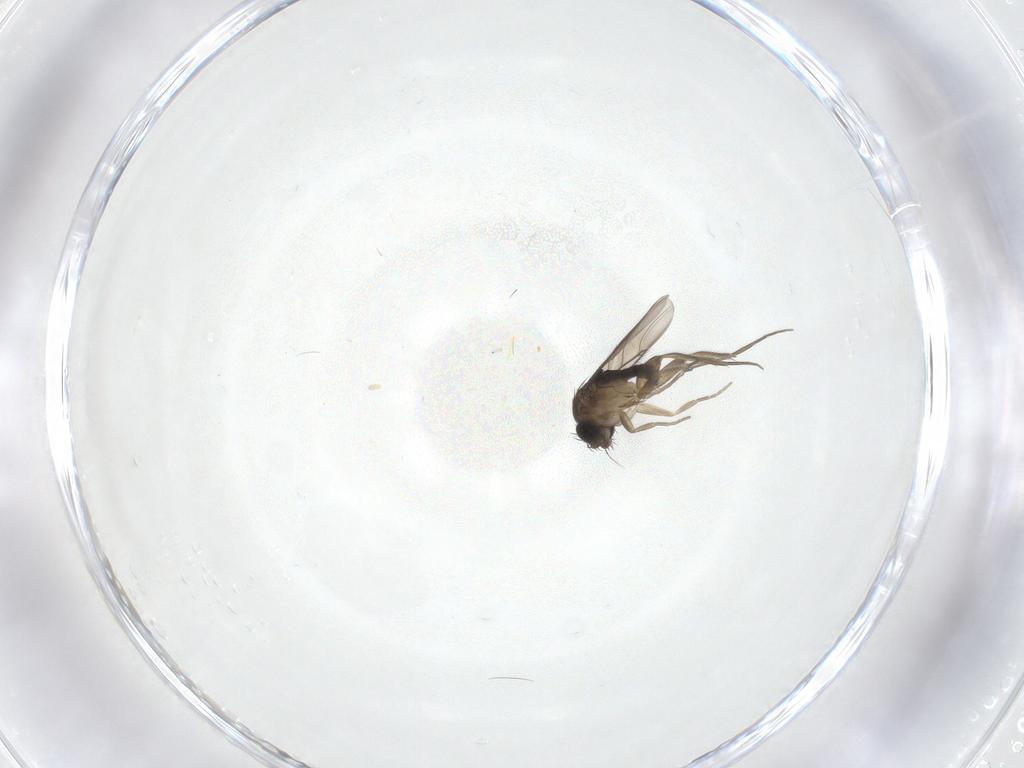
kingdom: Animalia
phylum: Arthropoda
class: Insecta
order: Diptera
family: Phoridae
